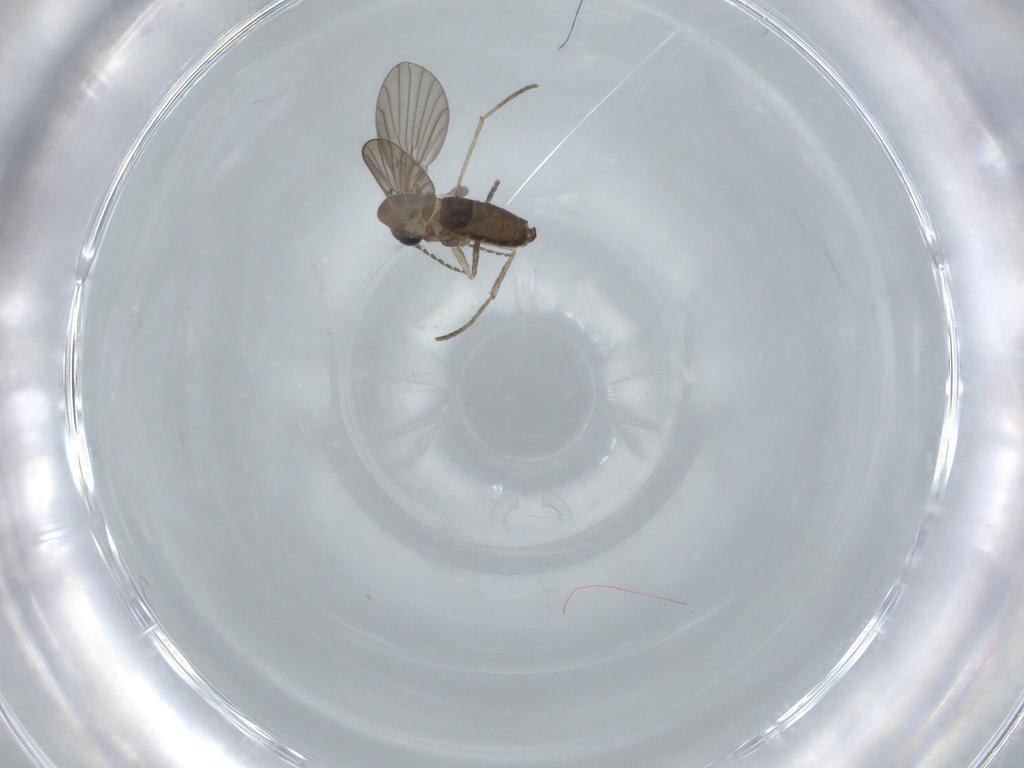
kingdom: Animalia
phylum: Arthropoda
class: Insecta
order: Diptera
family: Psychodidae
